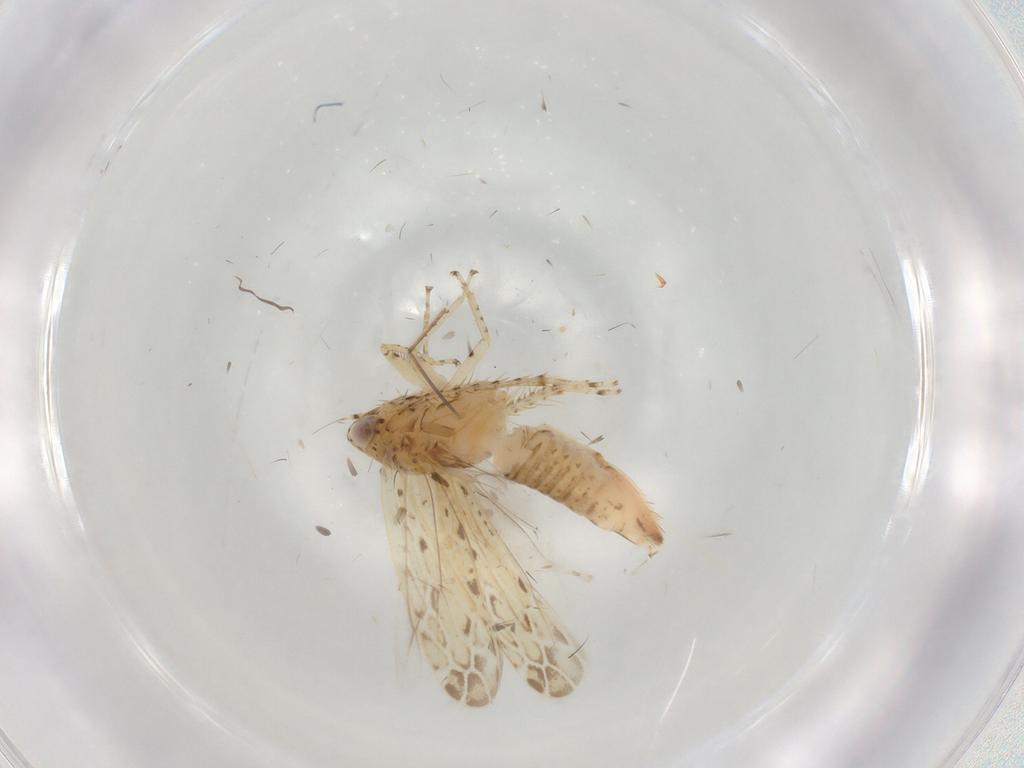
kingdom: Animalia
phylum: Arthropoda
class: Insecta
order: Hemiptera
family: Cicadellidae
